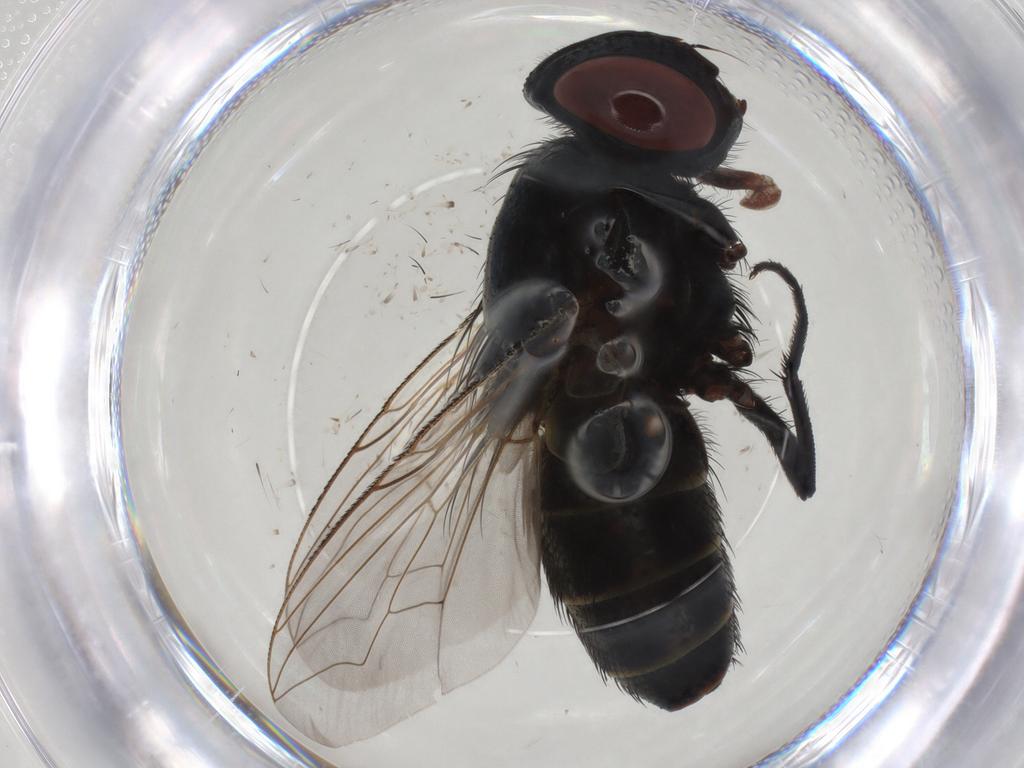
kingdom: Animalia
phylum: Arthropoda
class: Insecta
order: Diptera
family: Sarcophagidae
